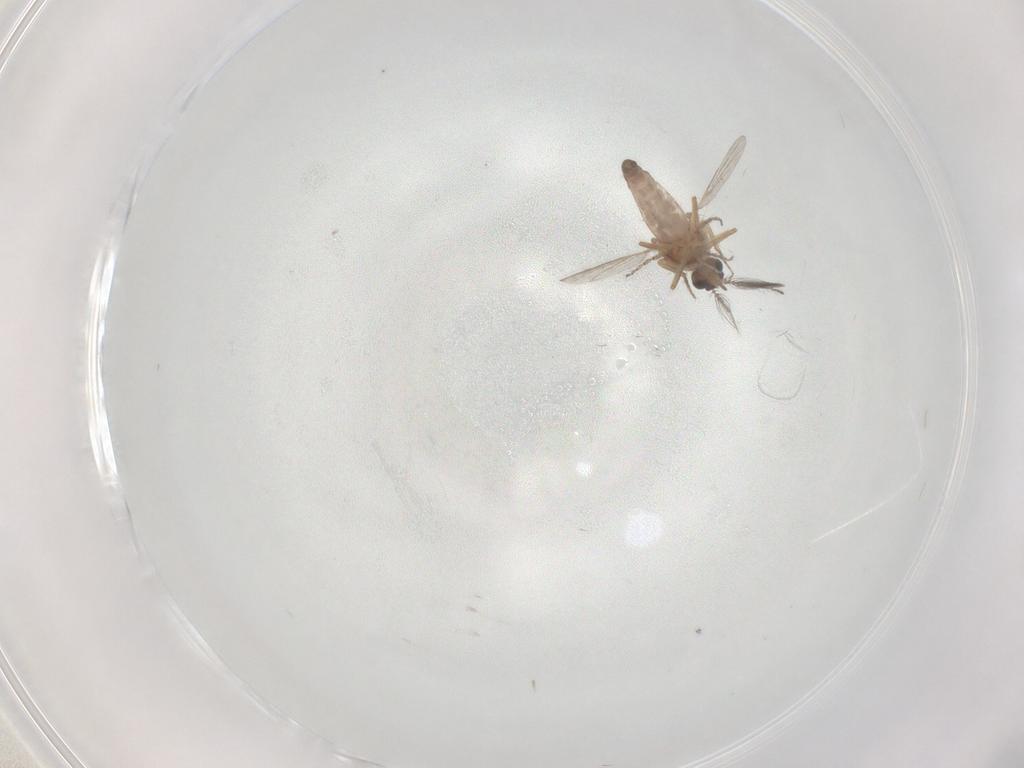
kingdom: Animalia
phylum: Arthropoda
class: Insecta
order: Diptera
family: Ceratopogonidae
